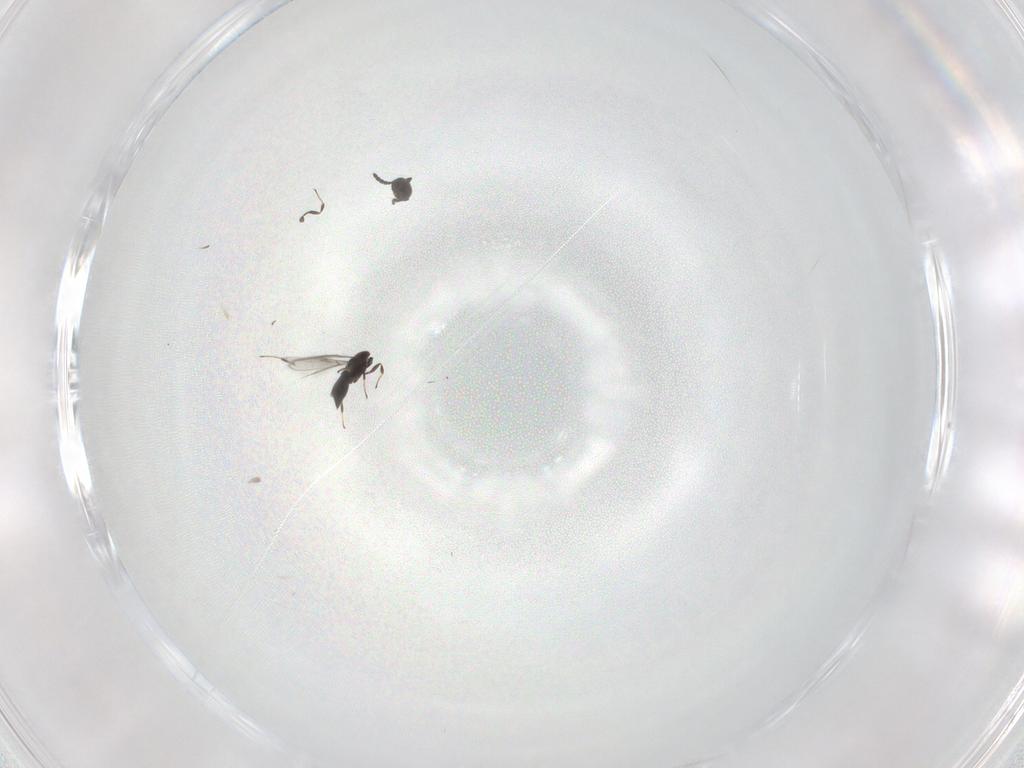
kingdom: Animalia
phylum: Arthropoda
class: Insecta
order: Hymenoptera
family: Scelionidae
